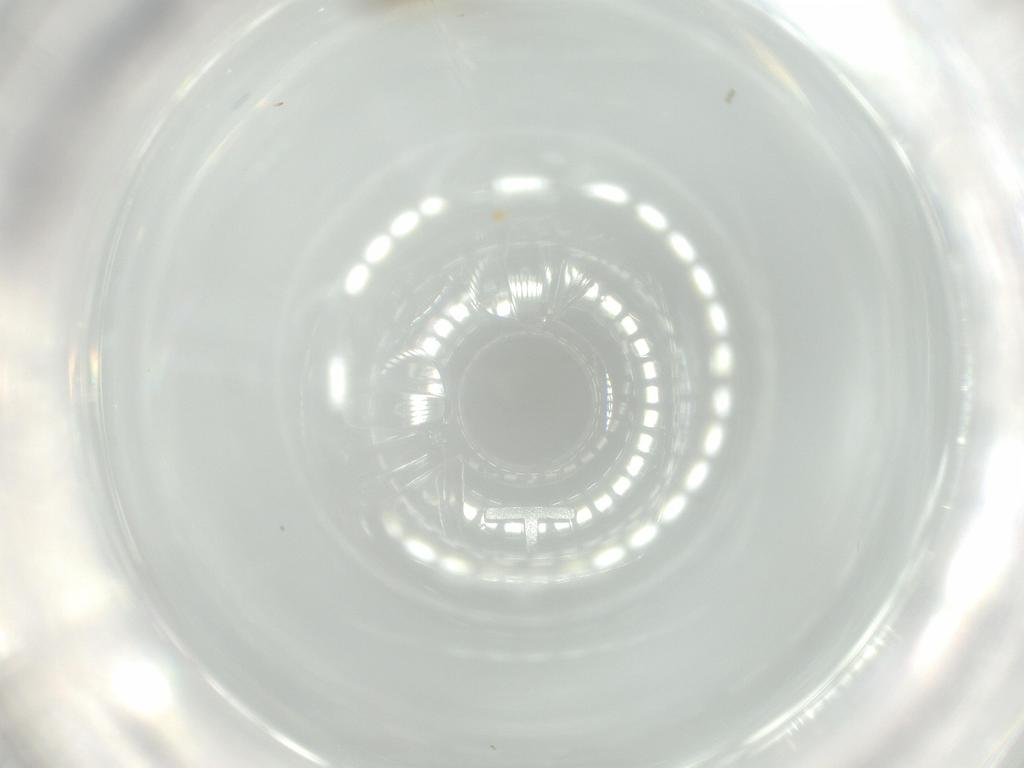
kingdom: Animalia
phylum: Arthropoda
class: Insecta
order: Diptera
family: Ceratopogonidae
